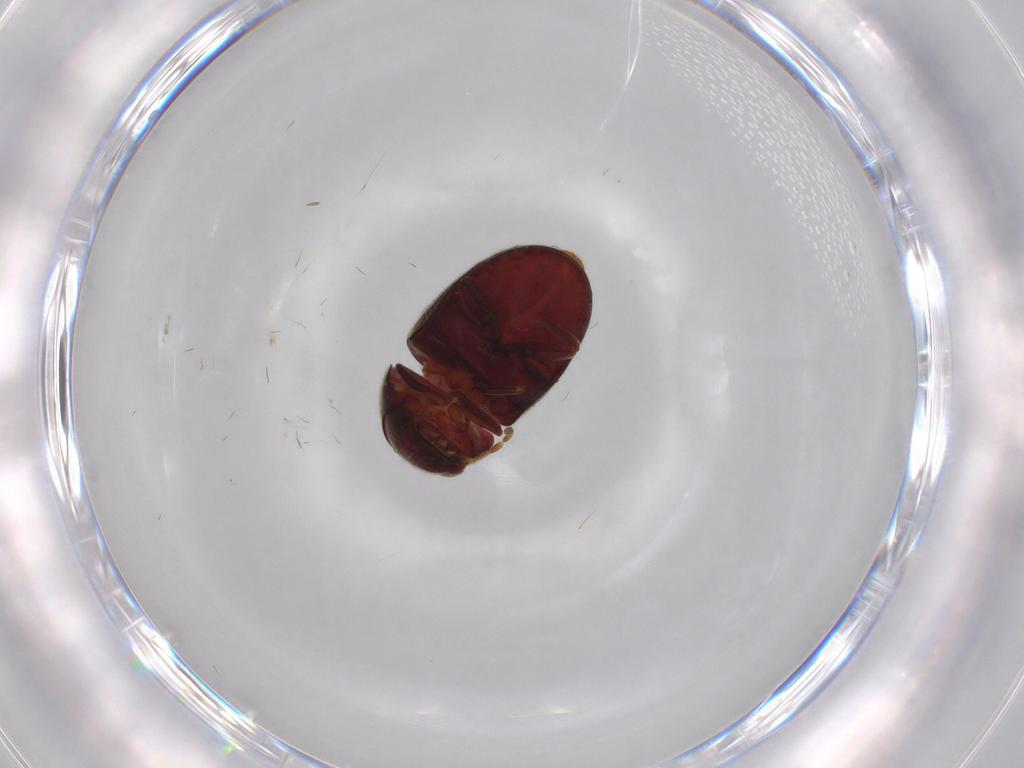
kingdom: Animalia
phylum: Arthropoda
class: Insecta
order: Coleoptera
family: Ptinidae
